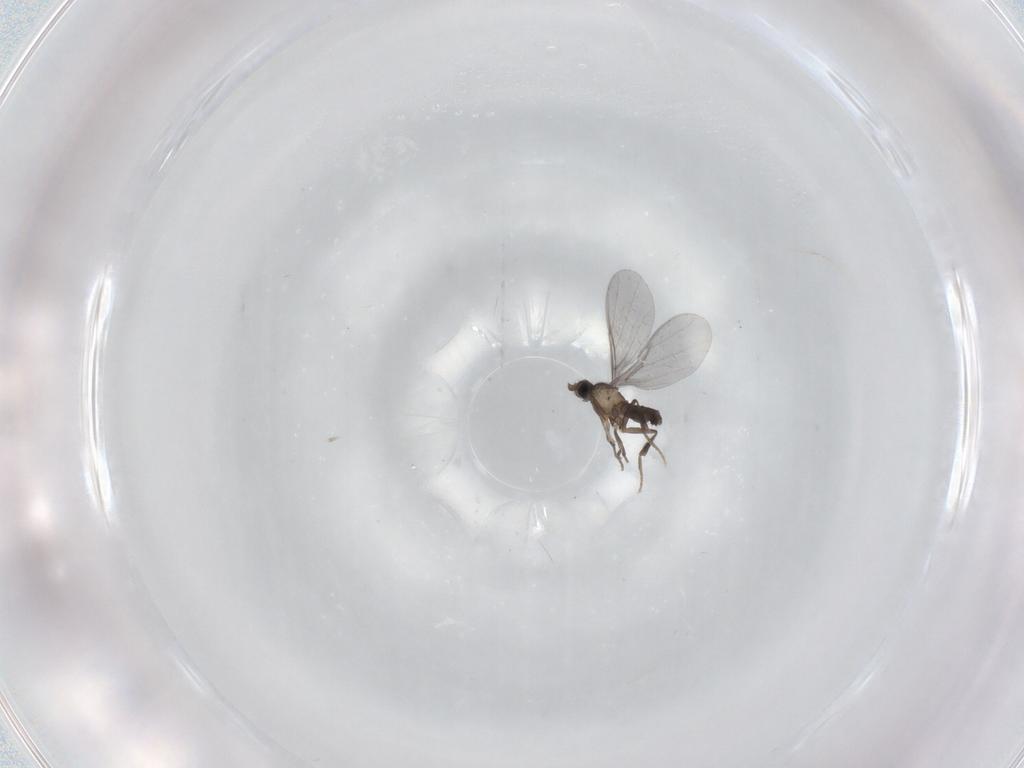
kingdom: Animalia
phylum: Arthropoda
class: Insecta
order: Diptera
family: Phoridae
